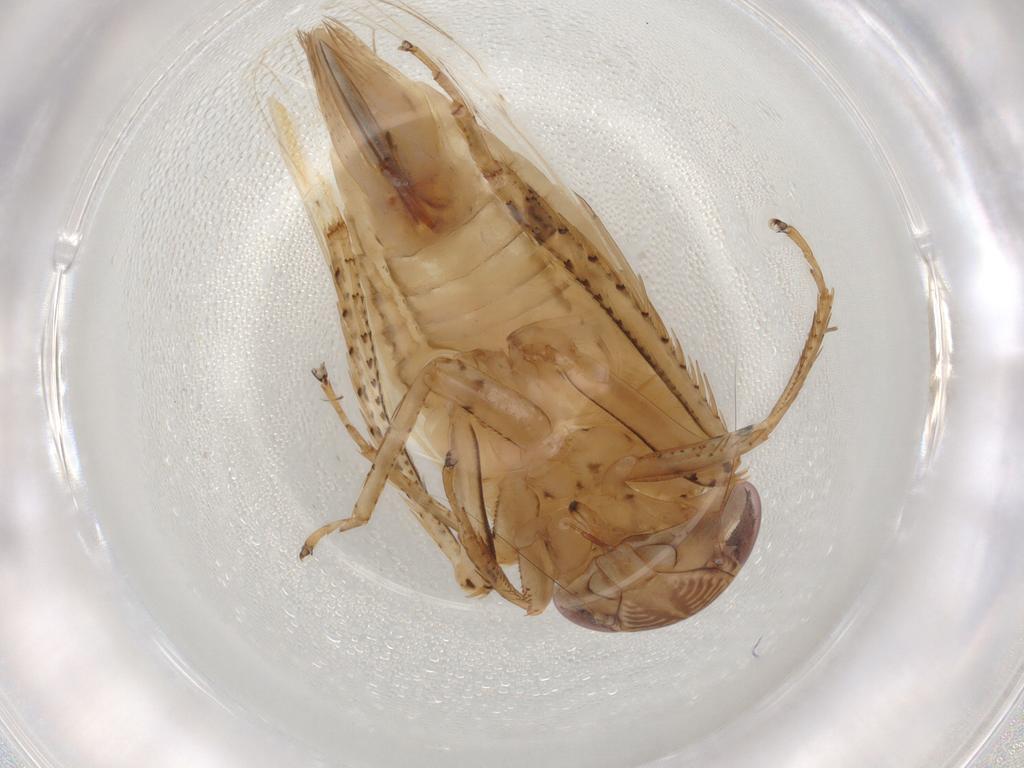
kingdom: Animalia
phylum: Arthropoda
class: Insecta
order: Hemiptera
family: Cicadellidae
